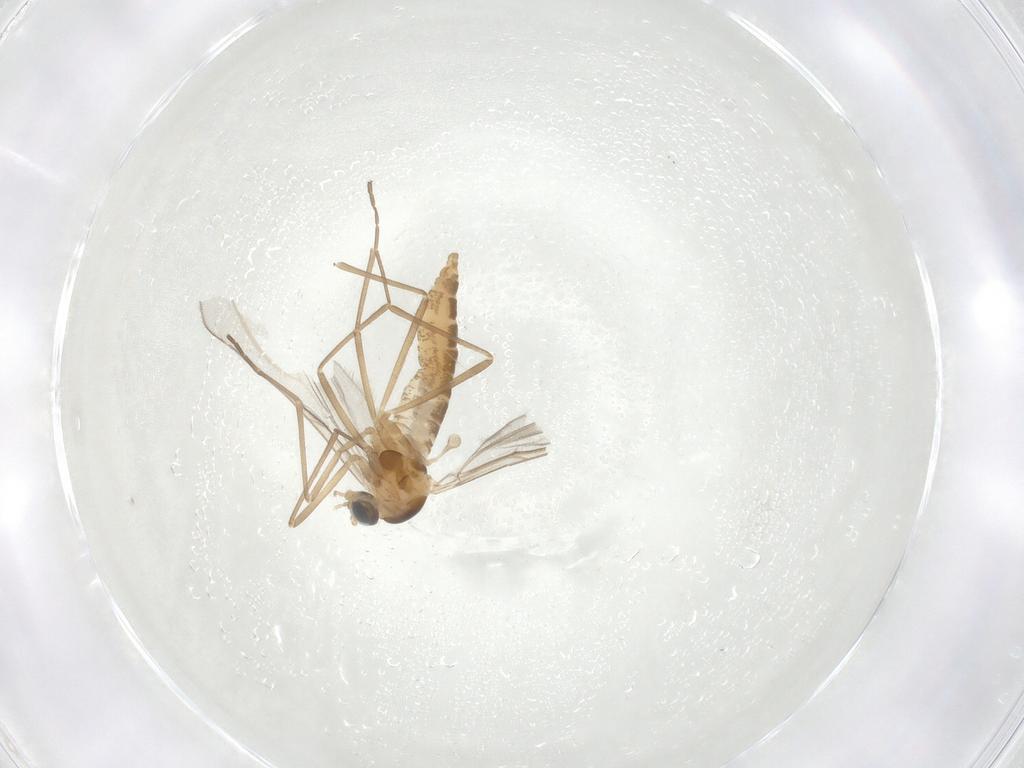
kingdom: Animalia
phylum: Arthropoda
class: Insecta
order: Diptera
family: Cecidomyiidae
